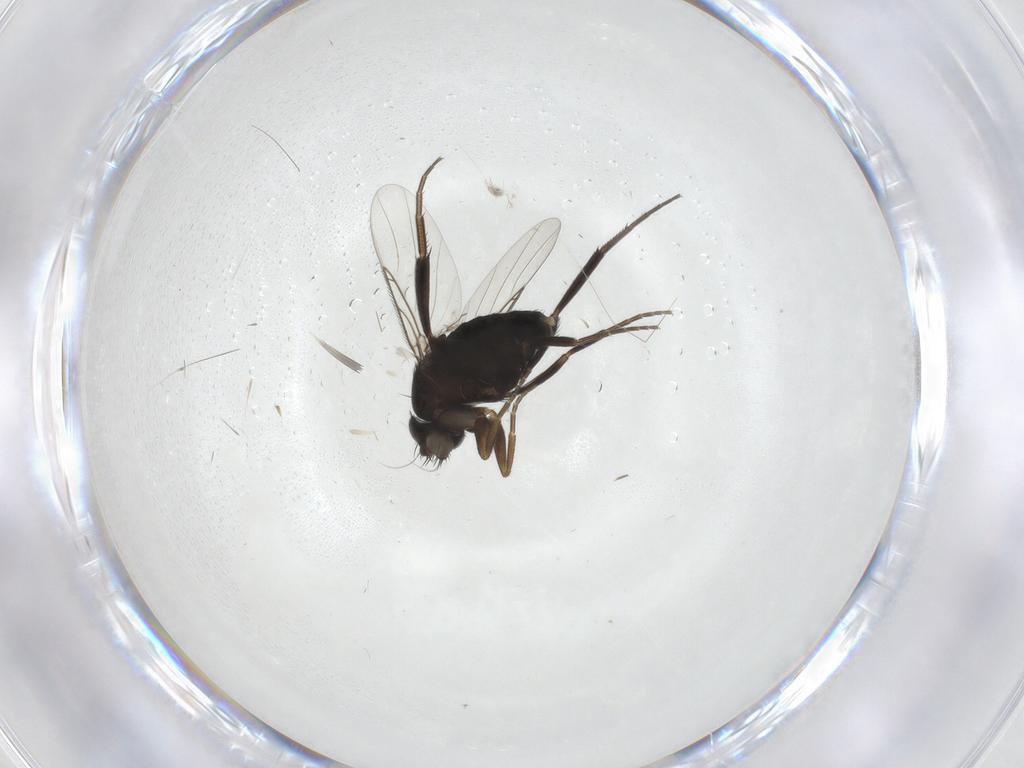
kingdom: Animalia
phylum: Arthropoda
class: Insecta
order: Diptera
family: Phoridae
